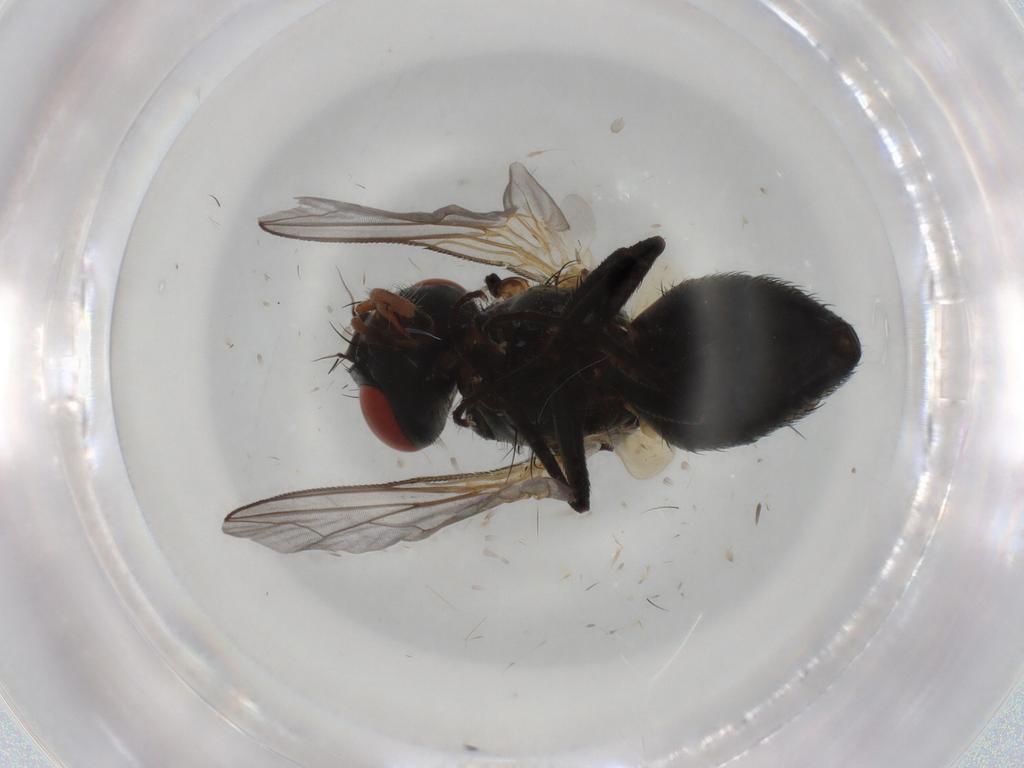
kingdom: Animalia
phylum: Arthropoda
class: Insecta
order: Diptera
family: Sarcophagidae
